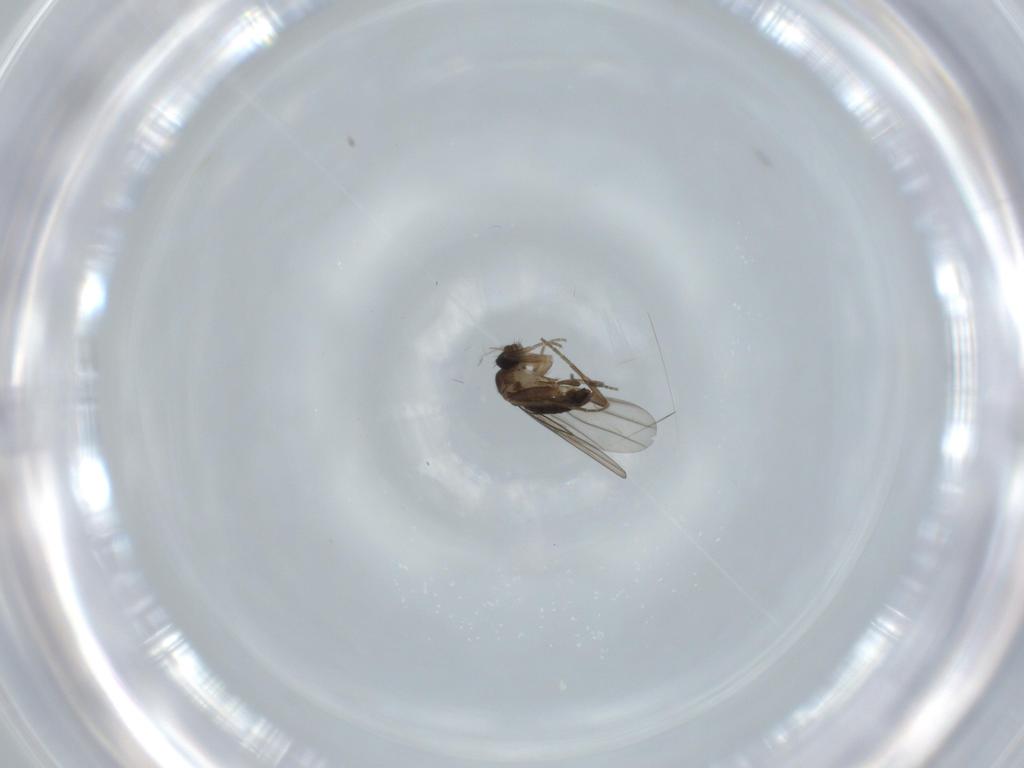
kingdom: Animalia
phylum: Arthropoda
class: Insecta
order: Diptera
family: Phoridae
